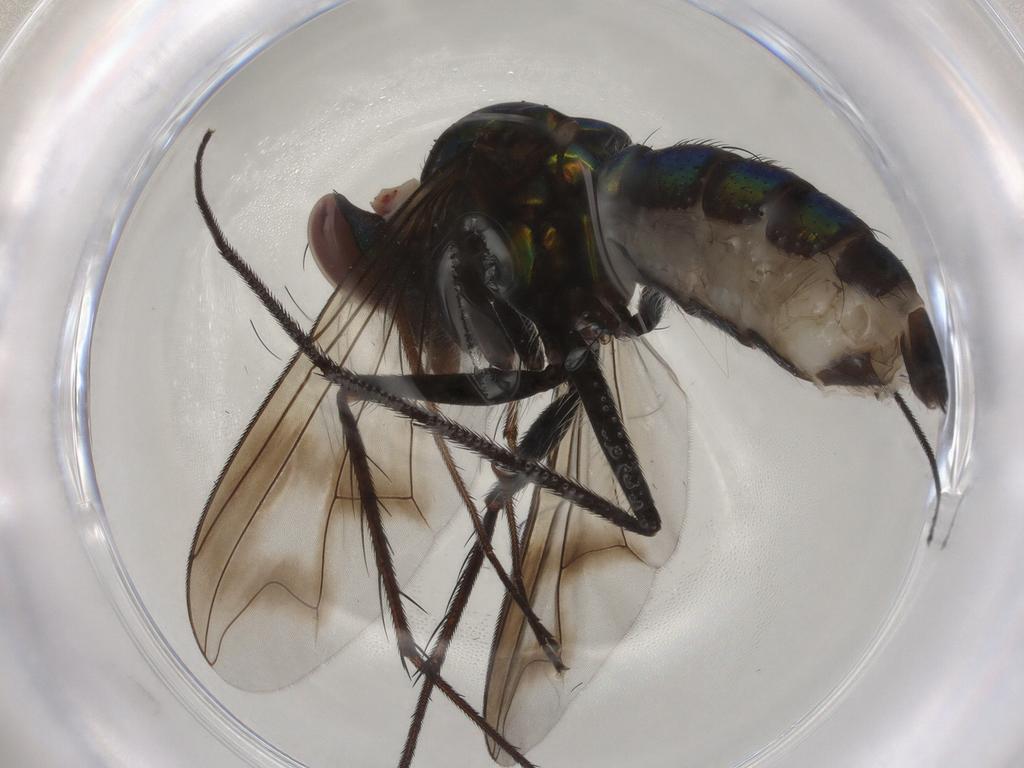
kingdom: Animalia
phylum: Arthropoda
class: Insecta
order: Diptera
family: Dolichopodidae
